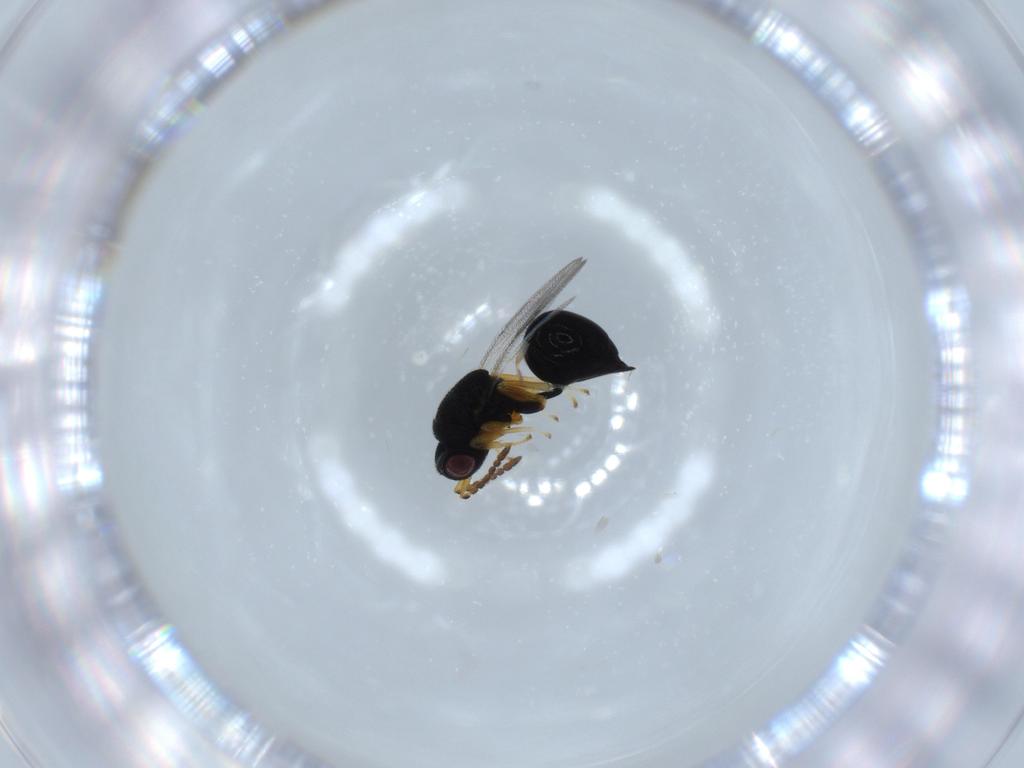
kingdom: Animalia
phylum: Arthropoda
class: Insecta
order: Hymenoptera
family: Eurytomidae
